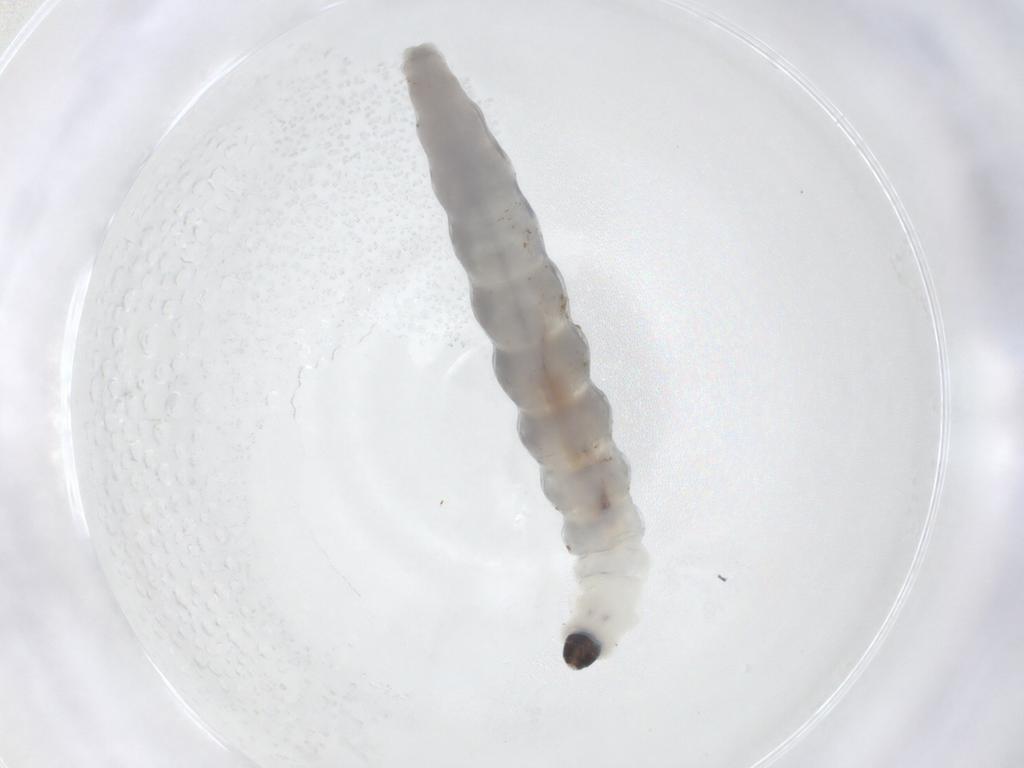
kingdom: Animalia
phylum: Arthropoda
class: Insecta
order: Diptera
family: Sciaridae
